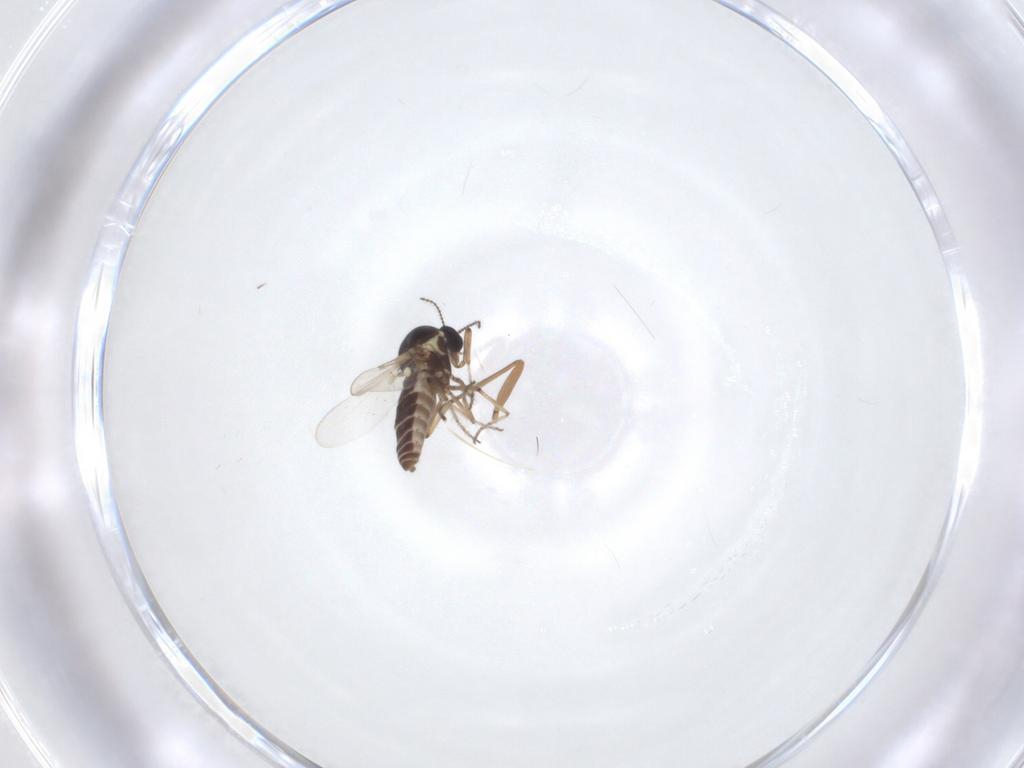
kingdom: Animalia
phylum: Arthropoda
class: Insecta
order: Diptera
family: Ceratopogonidae
